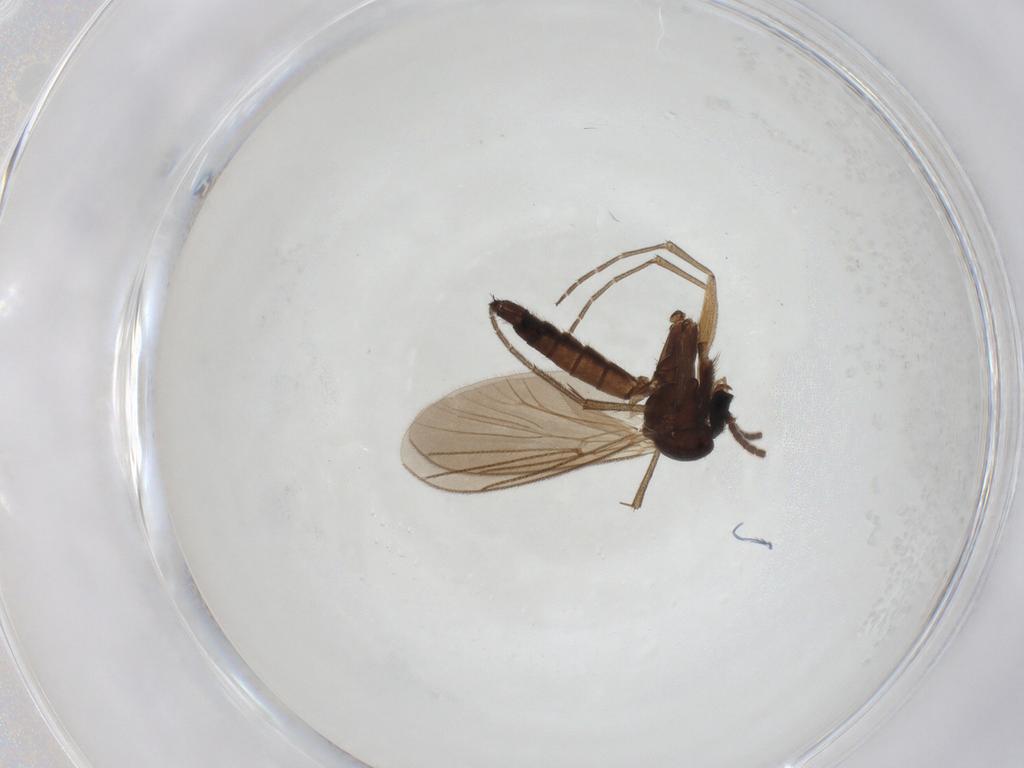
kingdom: Animalia
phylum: Arthropoda
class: Insecta
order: Diptera
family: Mycetophilidae
